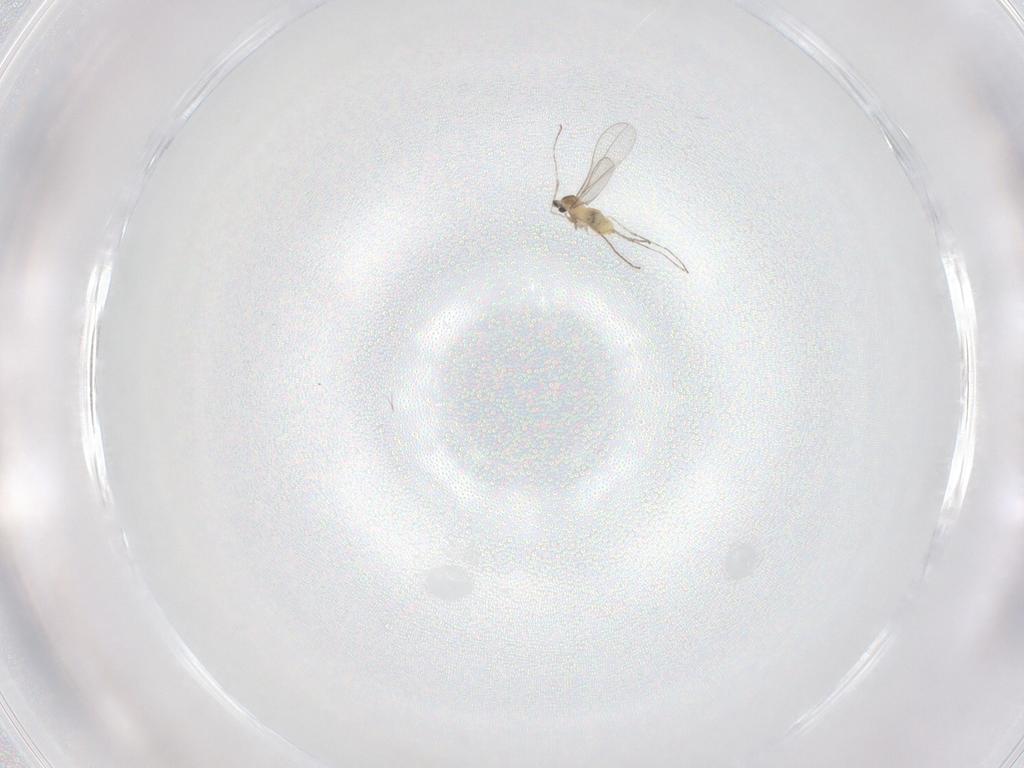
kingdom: Animalia
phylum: Arthropoda
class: Insecta
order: Diptera
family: Cecidomyiidae
